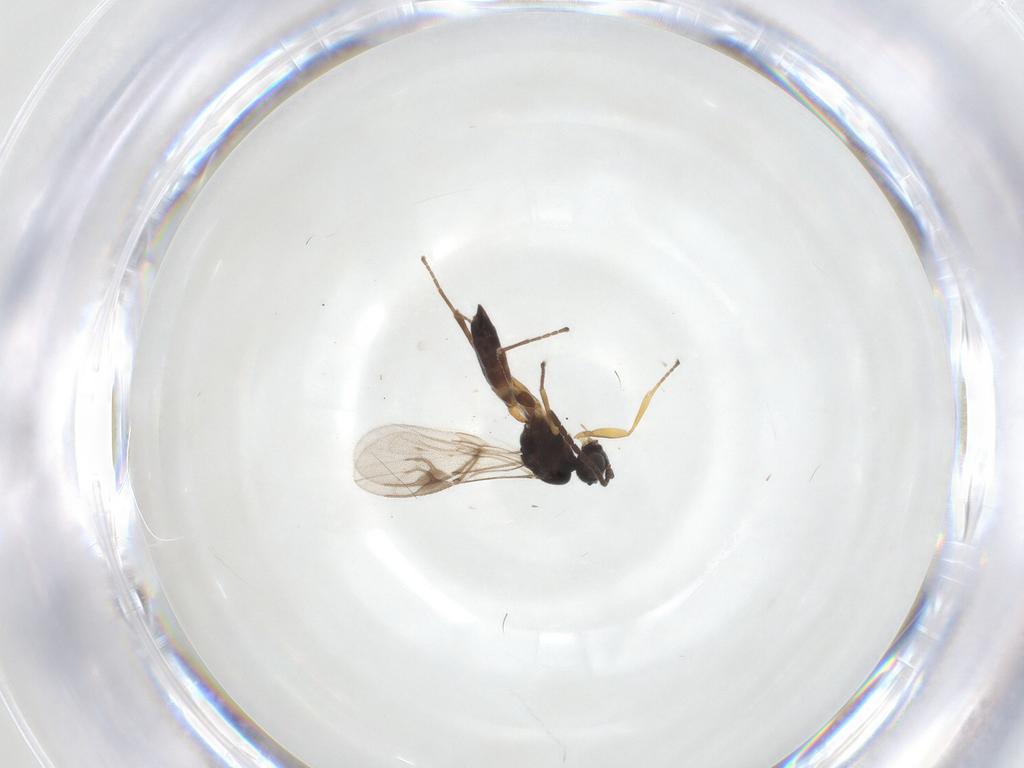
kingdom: Animalia
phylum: Arthropoda
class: Insecta
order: Hymenoptera
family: Braconidae
